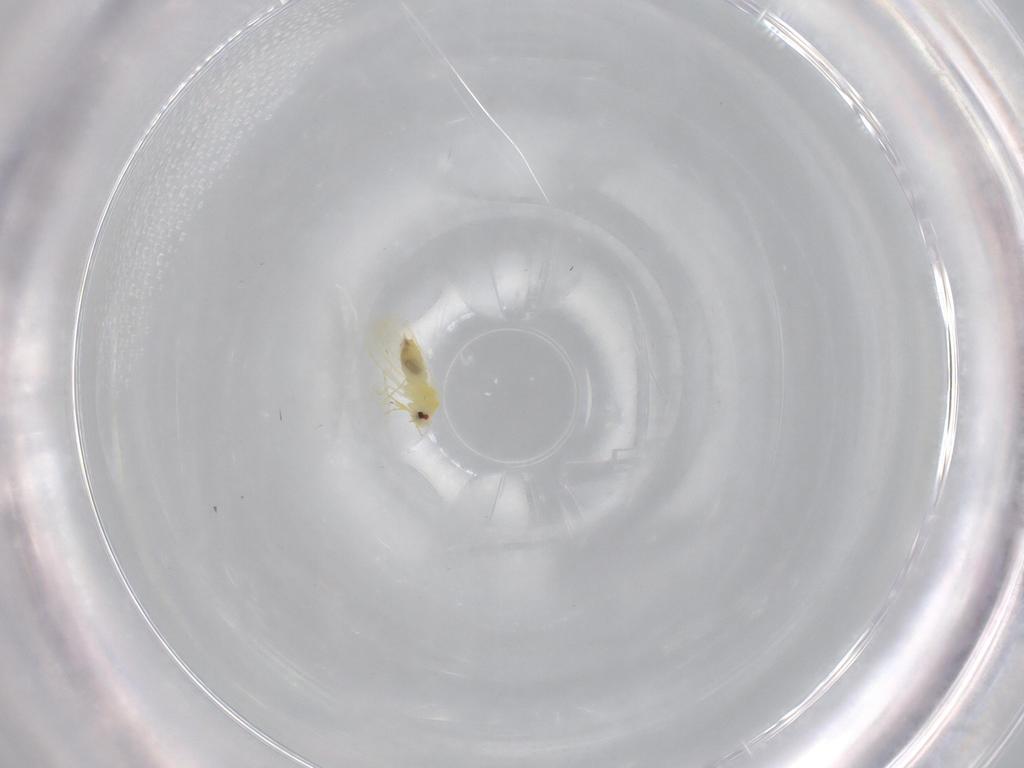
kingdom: Animalia
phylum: Arthropoda
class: Insecta
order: Hemiptera
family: Aleyrodidae
